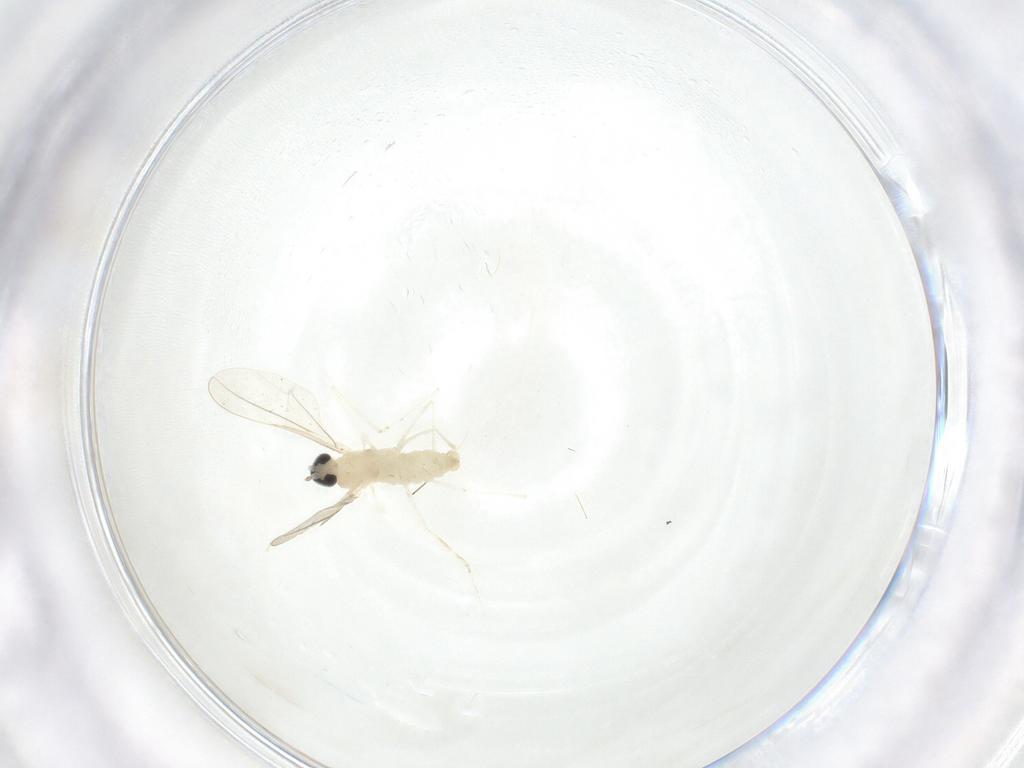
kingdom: Animalia
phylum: Arthropoda
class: Insecta
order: Diptera
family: Cecidomyiidae
